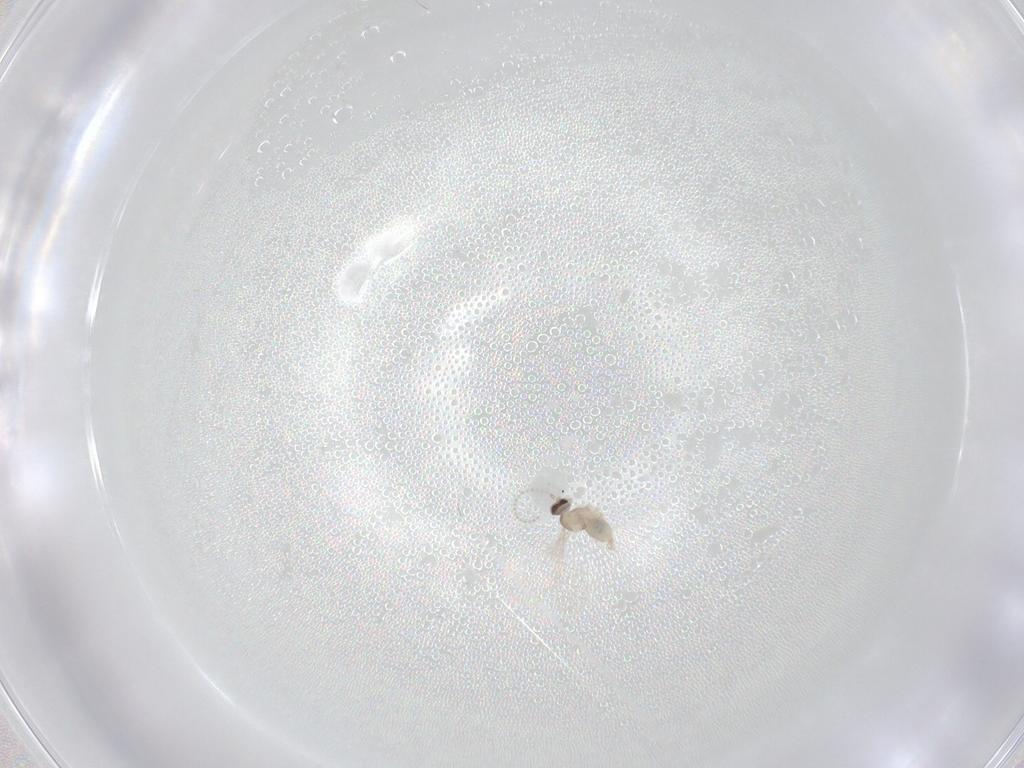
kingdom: Animalia
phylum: Arthropoda
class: Insecta
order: Diptera
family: Cecidomyiidae
